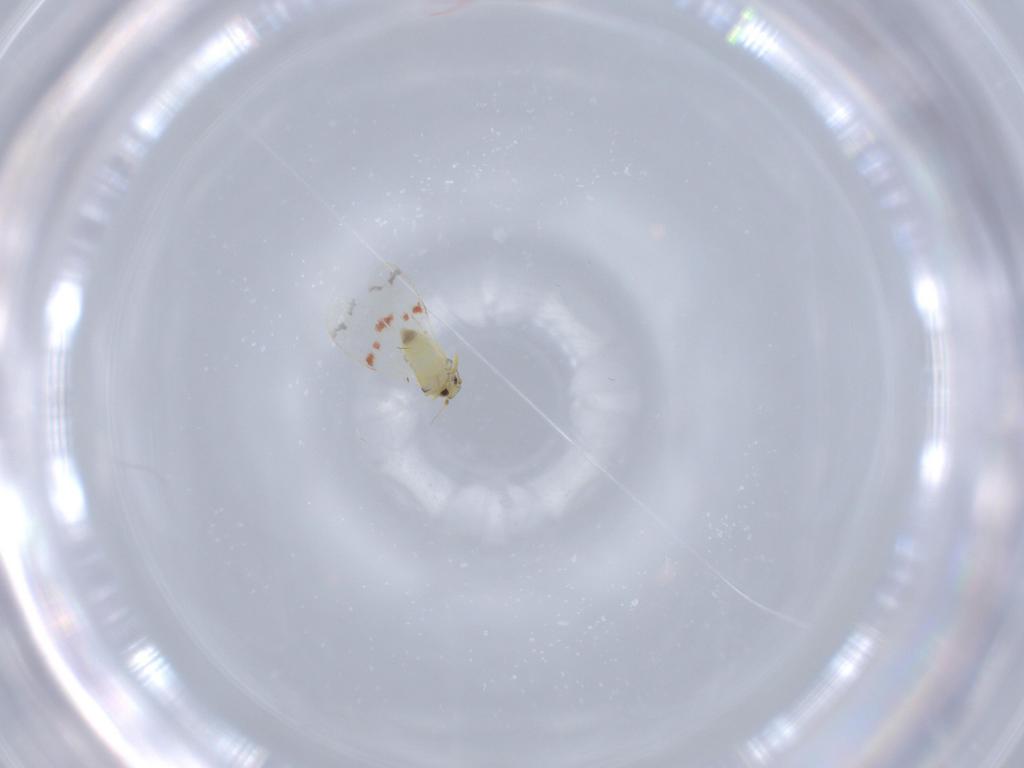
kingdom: Animalia
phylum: Arthropoda
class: Insecta
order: Hemiptera
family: Aleyrodidae
